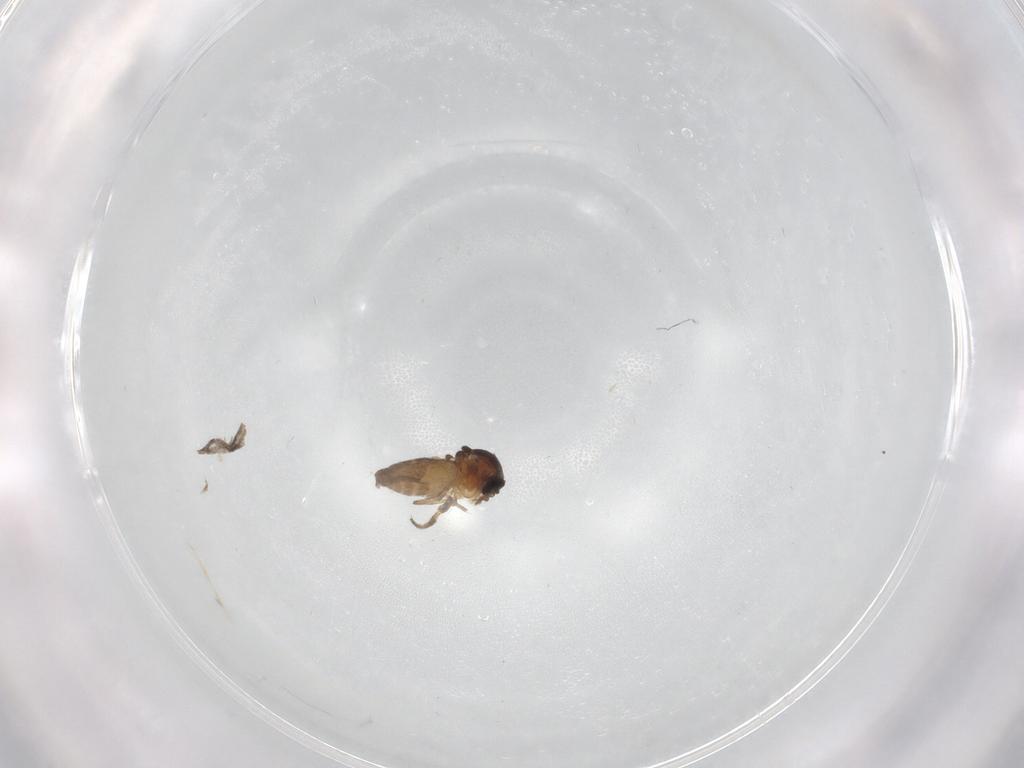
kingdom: Animalia
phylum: Arthropoda
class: Insecta
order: Diptera
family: Ceratopogonidae
